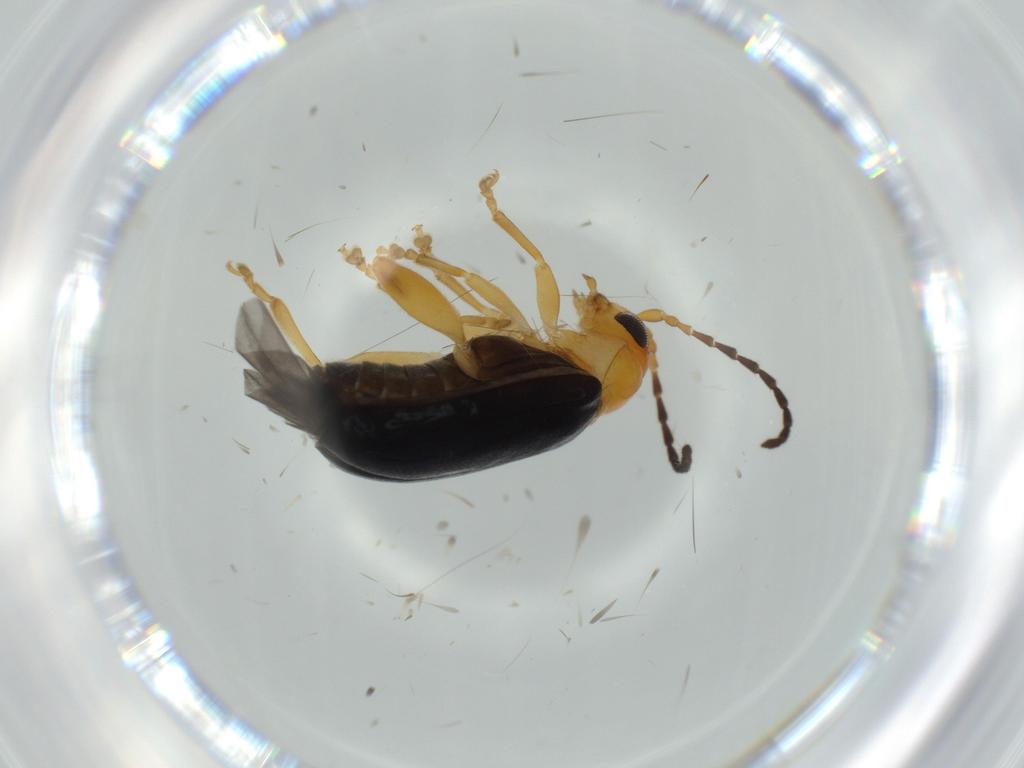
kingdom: Animalia
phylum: Arthropoda
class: Insecta
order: Coleoptera
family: Chrysomelidae
